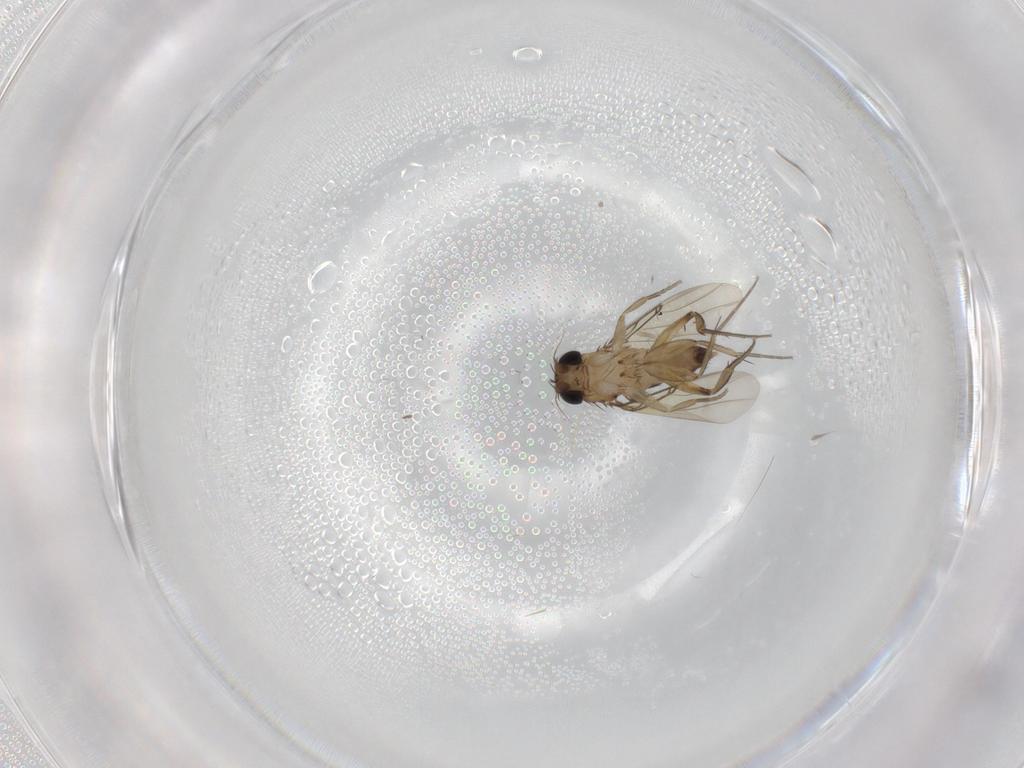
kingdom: Animalia
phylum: Arthropoda
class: Insecta
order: Diptera
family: Phoridae
